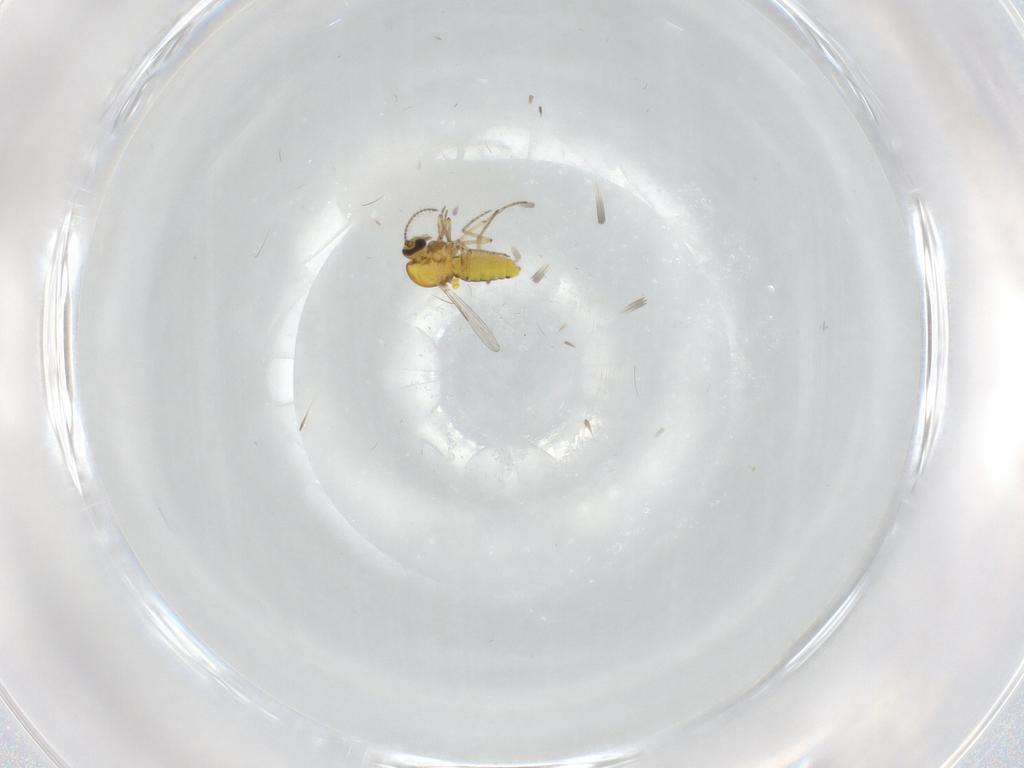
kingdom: Animalia
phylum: Arthropoda
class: Insecta
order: Diptera
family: Ceratopogonidae
